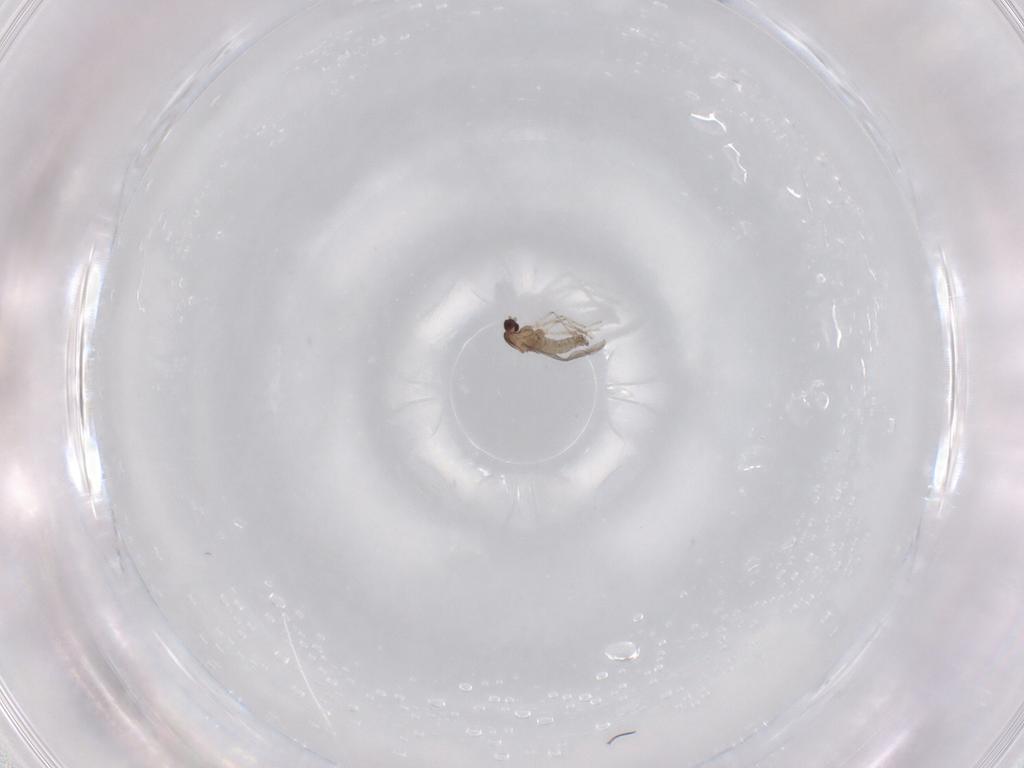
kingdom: Animalia
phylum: Arthropoda
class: Insecta
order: Diptera
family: Cecidomyiidae
